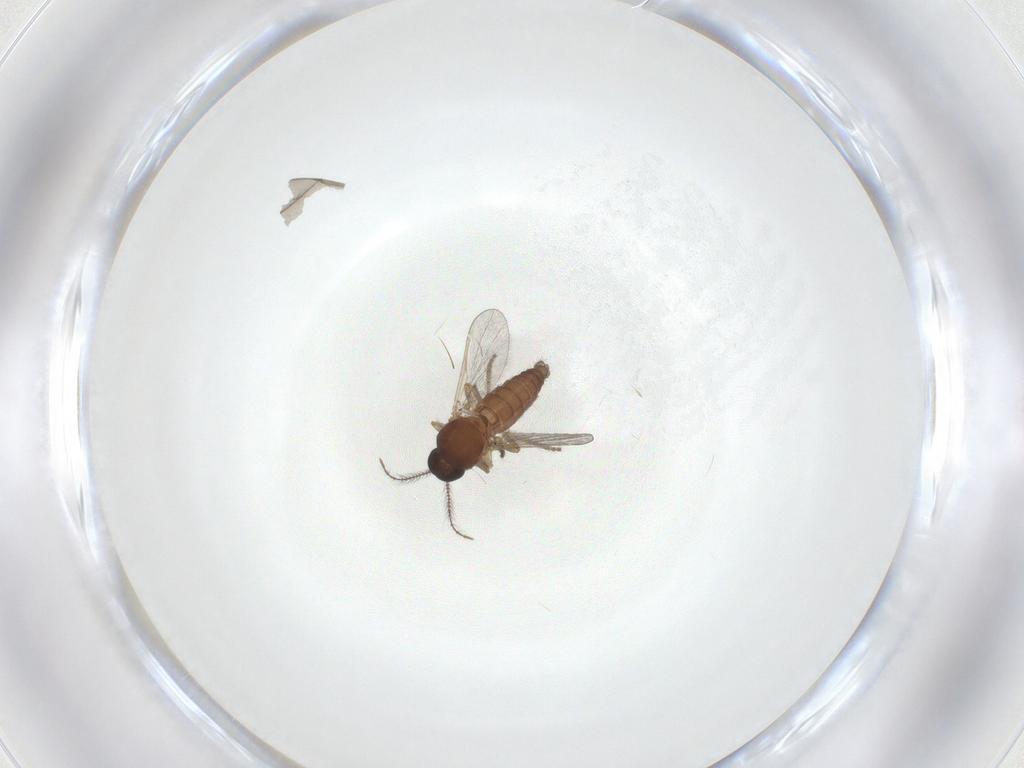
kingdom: Animalia
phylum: Arthropoda
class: Insecta
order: Diptera
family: Ceratopogonidae
